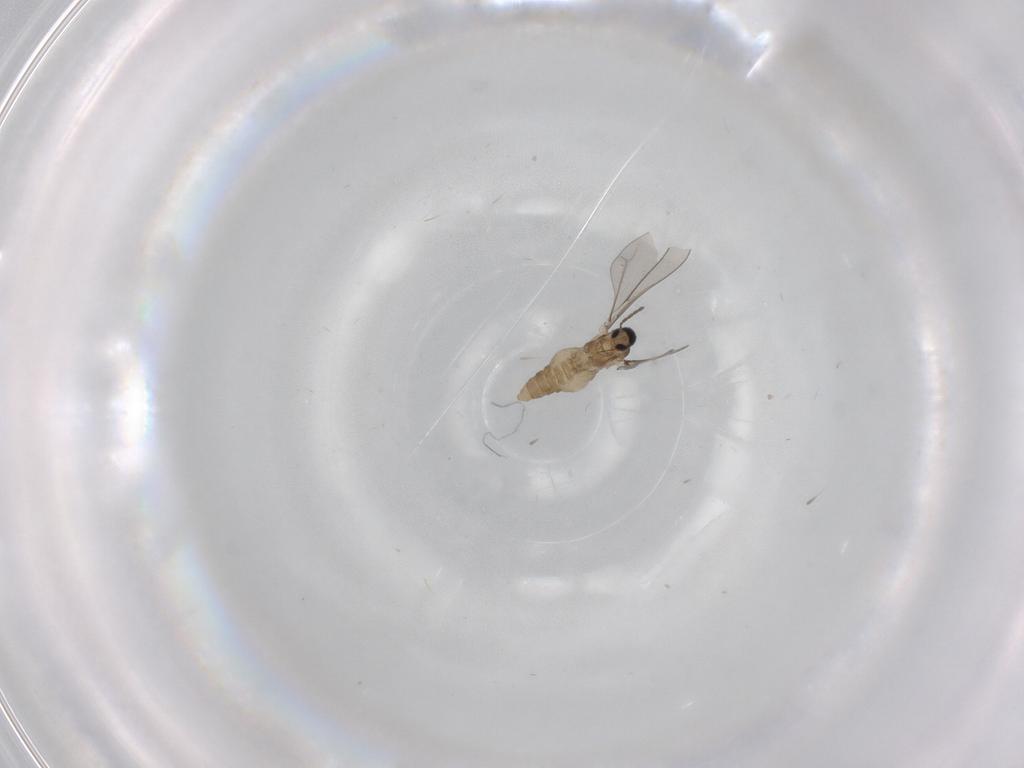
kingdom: Animalia
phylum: Arthropoda
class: Insecta
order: Diptera
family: Cecidomyiidae
